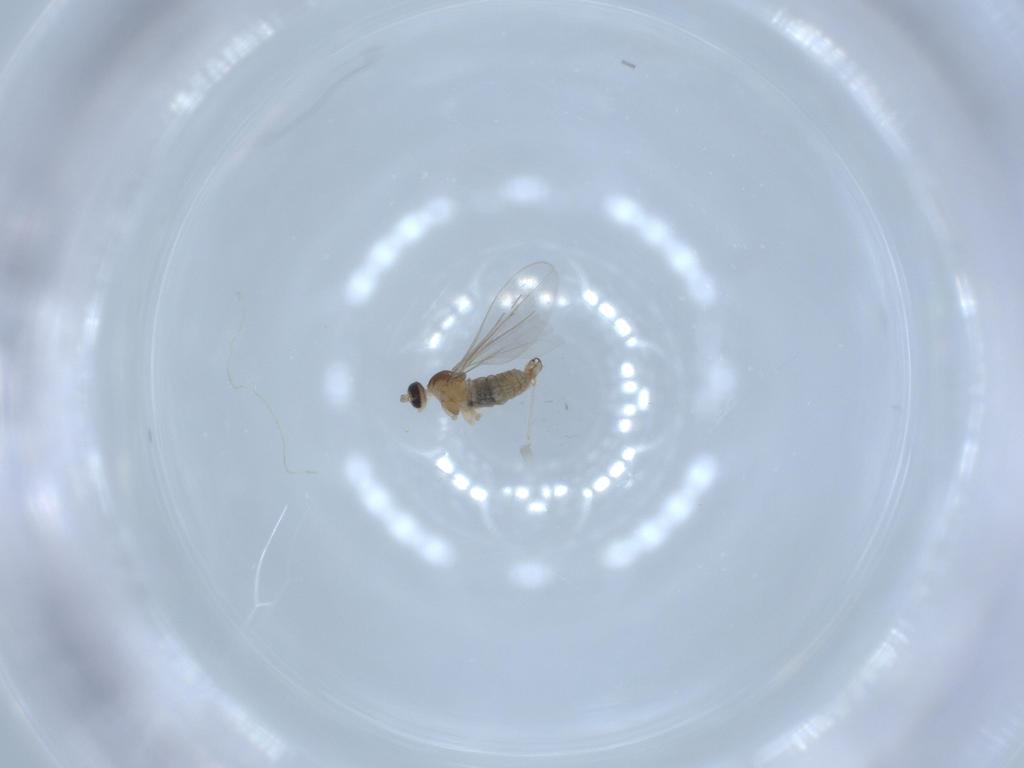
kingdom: Animalia
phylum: Arthropoda
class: Insecta
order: Diptera
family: Cecidomyiidae
